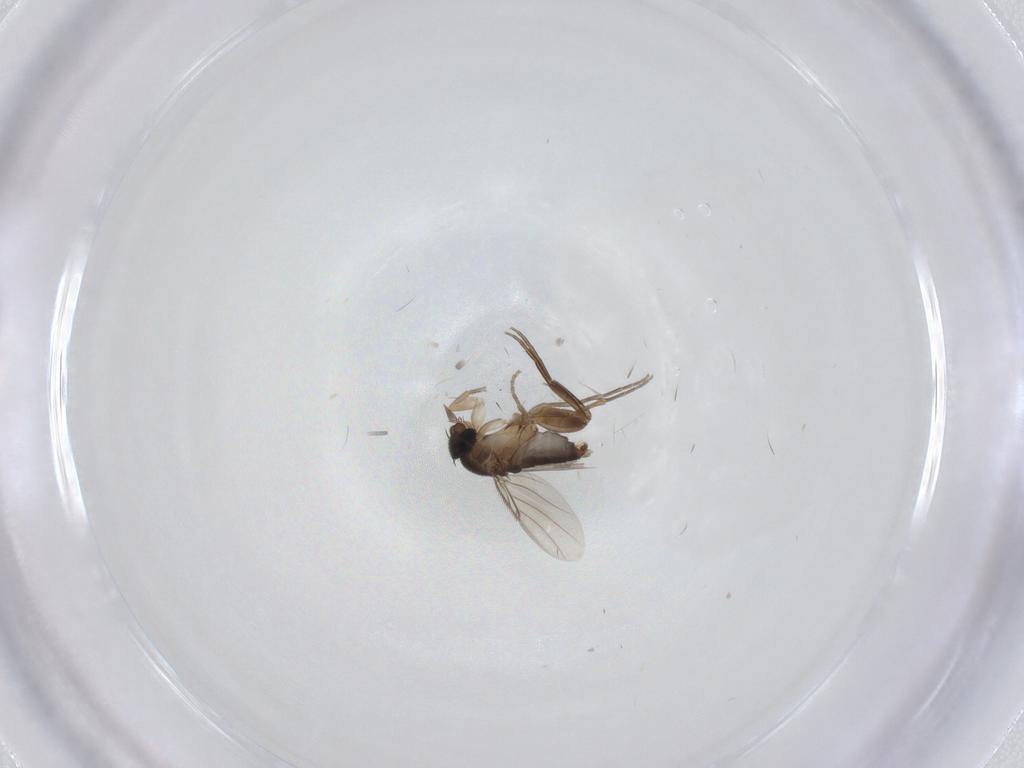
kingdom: Animalia
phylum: Arthropoda
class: Insecta
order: Diptera
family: Phoridae
